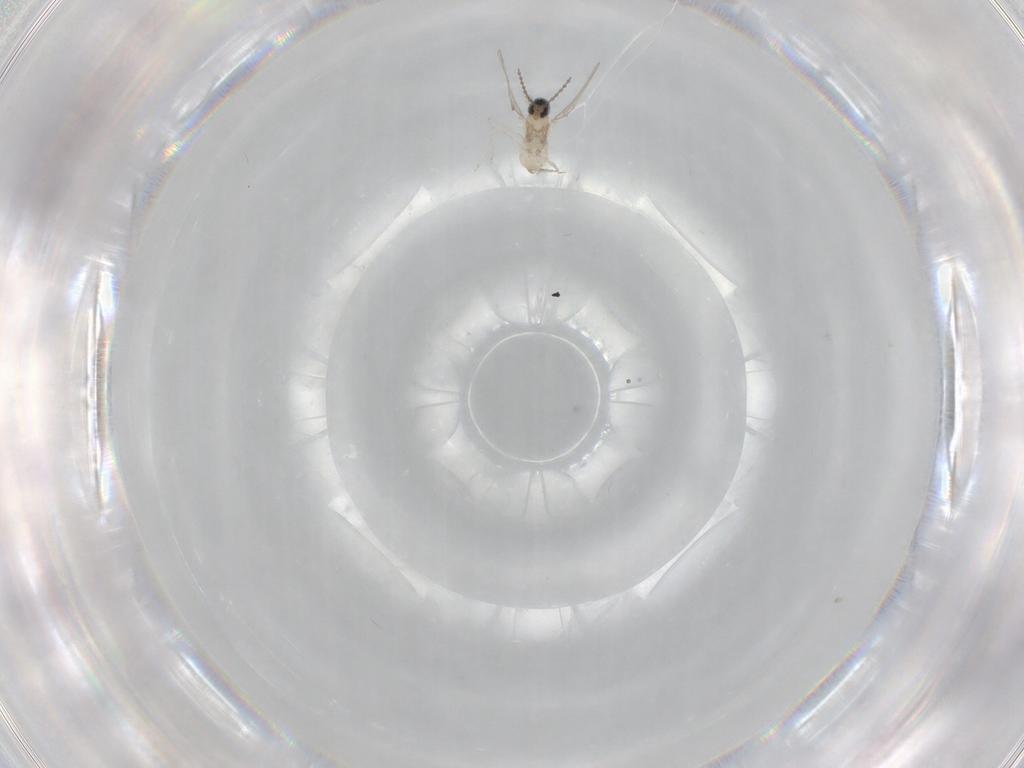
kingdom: Animalia
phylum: Arthropoda
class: Insecta
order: Diptera
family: Cecidomyiidae
